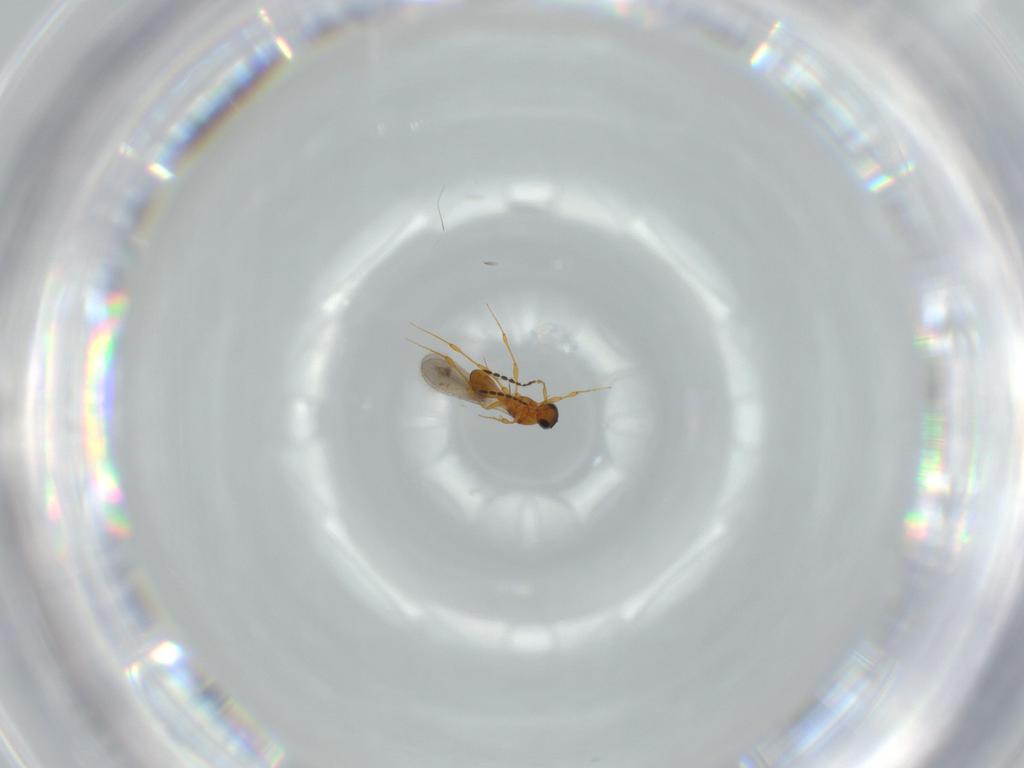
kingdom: Animalia
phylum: Arthropoda
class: Insecta
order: Hymenoptera
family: Platygastridae
